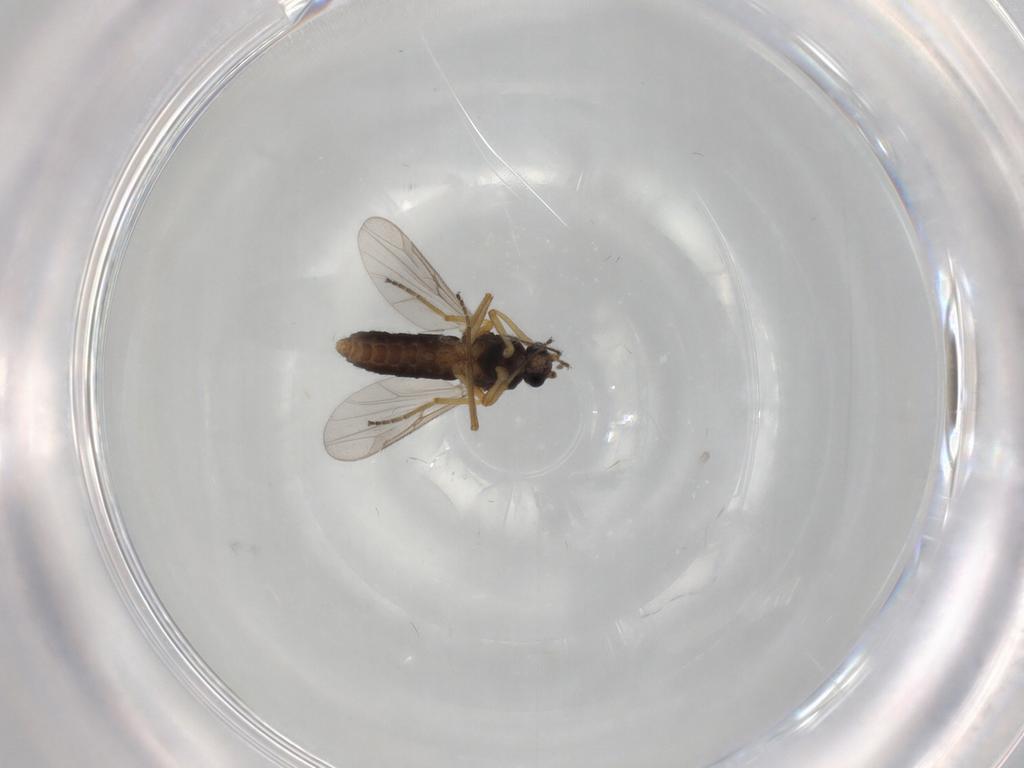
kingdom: Animalia
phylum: Arthropoda
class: Insecta
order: Diptera
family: Ceratopogonidae
